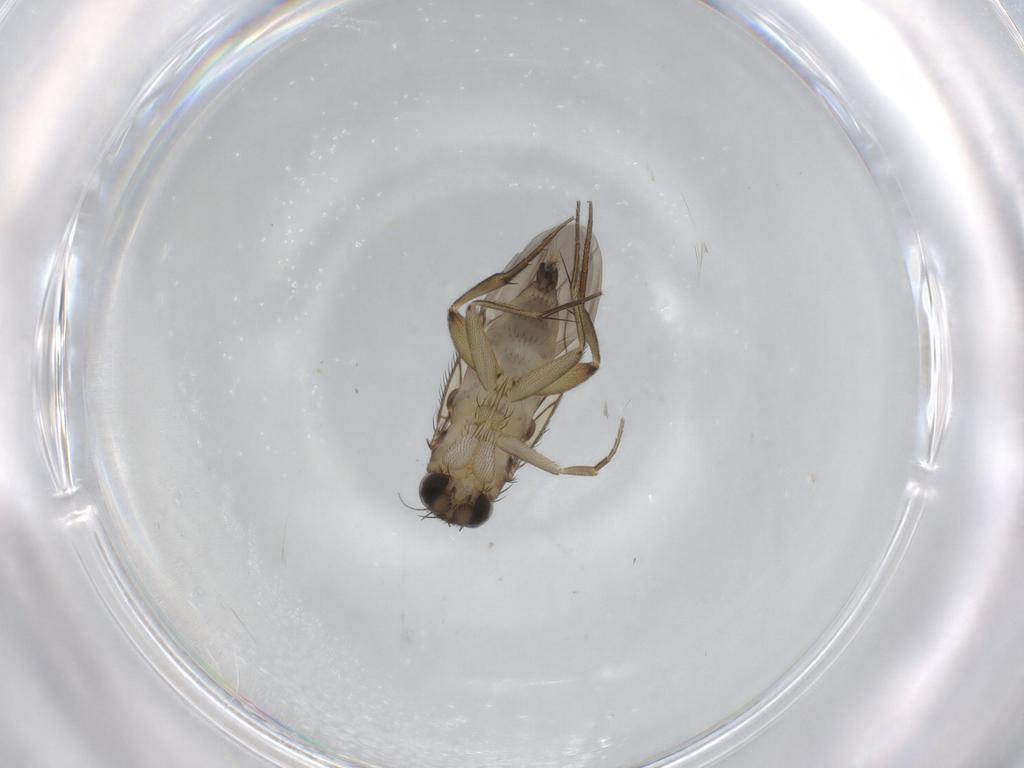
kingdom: Animalia
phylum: Arthropoda
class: Insecta
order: Diptera
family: Phoridae
